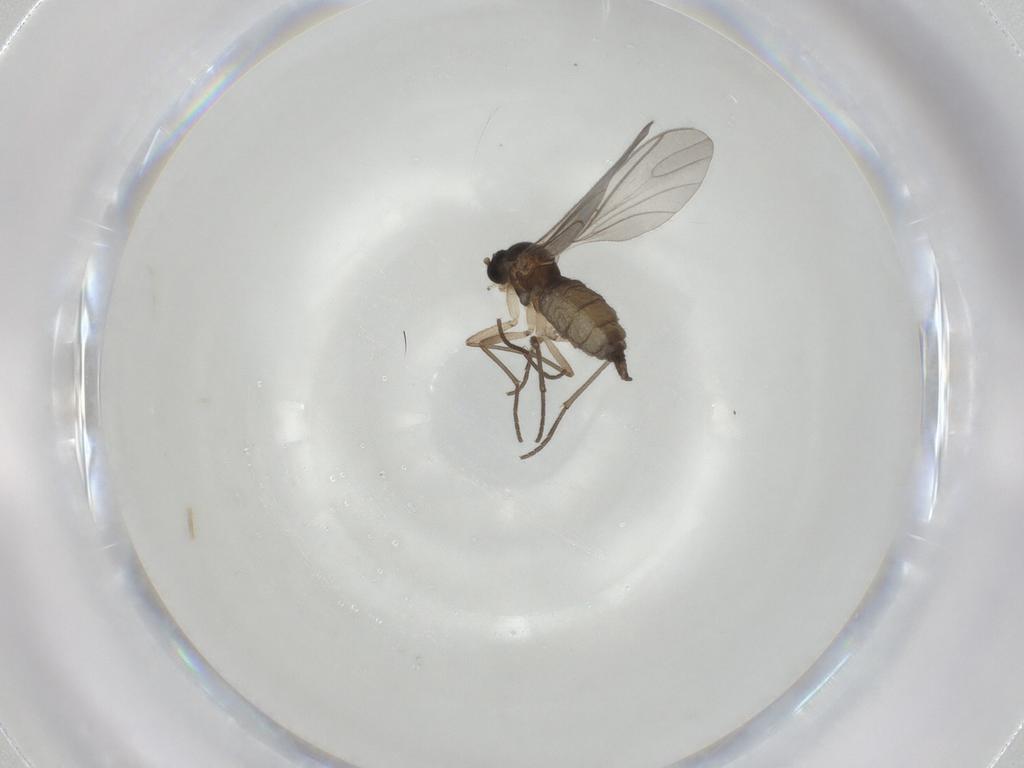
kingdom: Animalia
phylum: Arthropoda
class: Insecta
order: Diptera
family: Sciaridae
